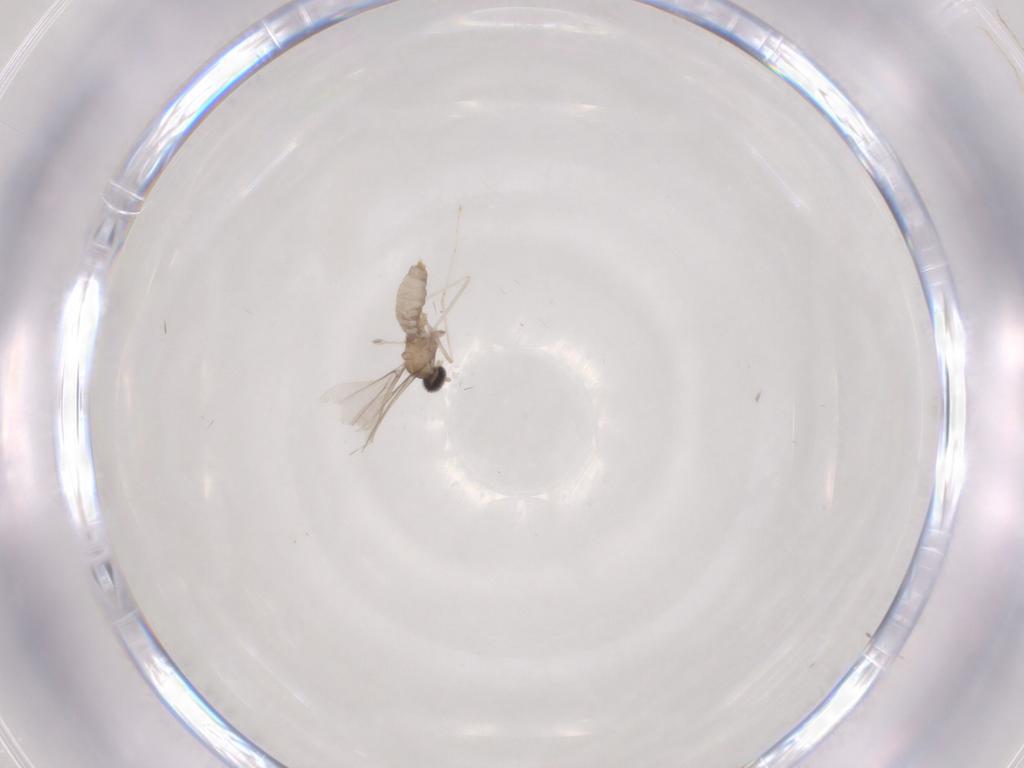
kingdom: Animalia
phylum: Arthropoda
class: Insecta
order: Diptera
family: Cecidomyiidae
